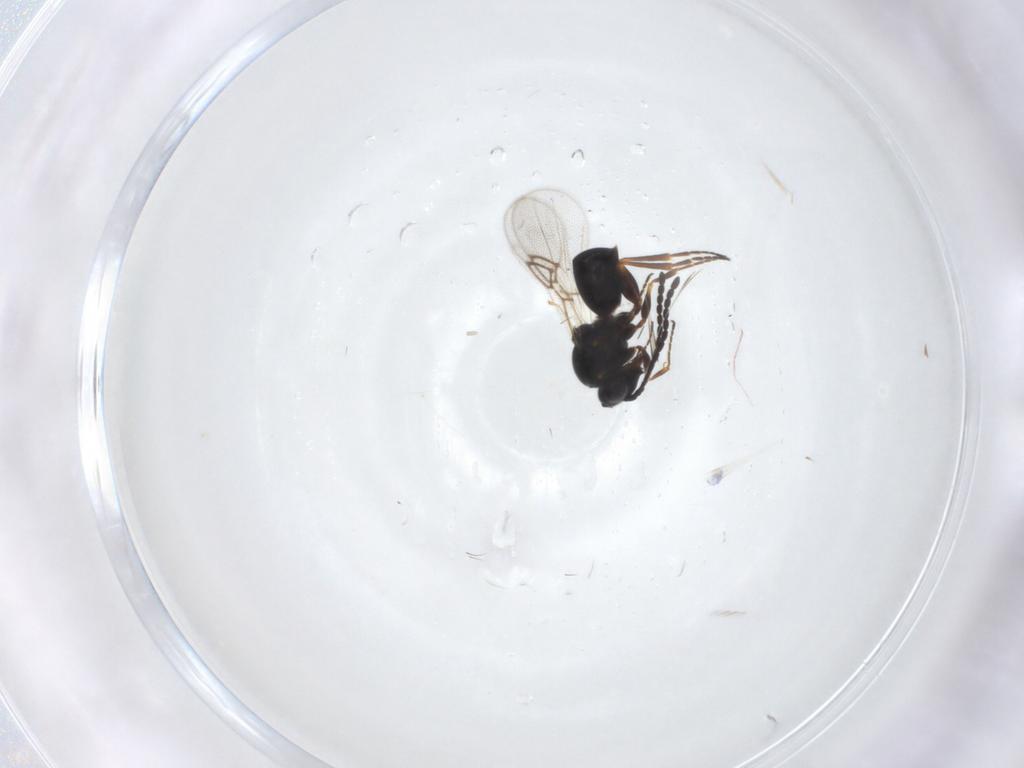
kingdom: Animalia
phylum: Arthropoda
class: Insecta
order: Hymenoptera
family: Figitidae
